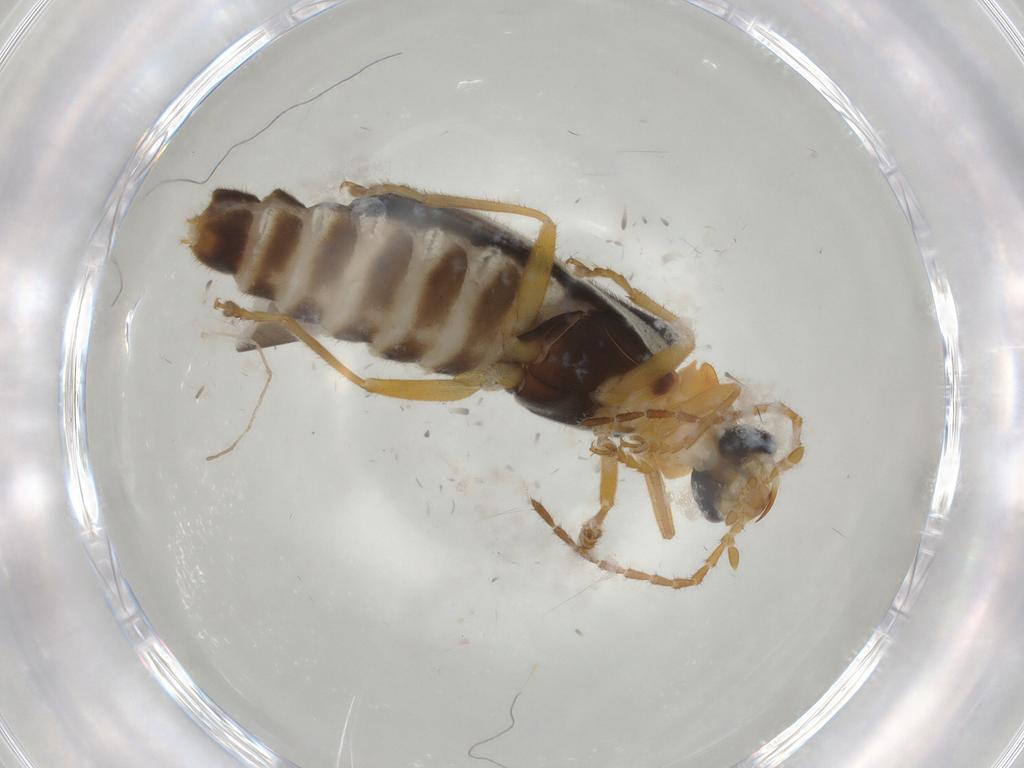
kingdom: Animalia
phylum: Arthropoda
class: Insecta
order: Coleoptera
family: Cantharidae
